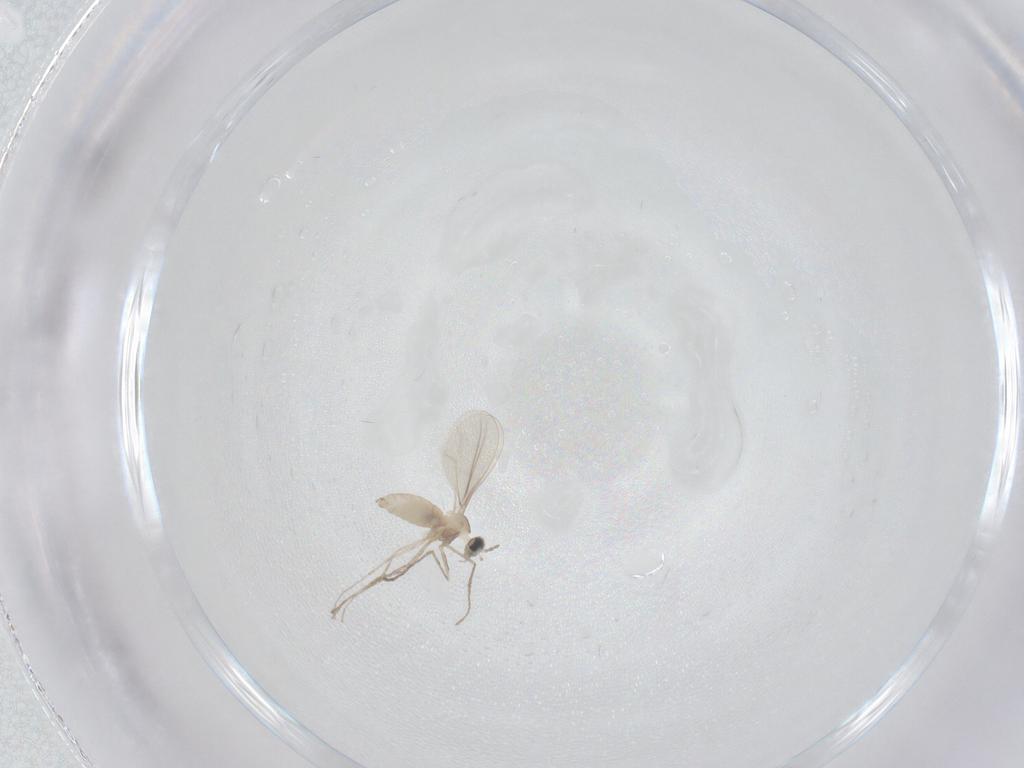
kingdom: Animalia
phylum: Arthropoda
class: Insecta
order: Diptera
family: Cecidomyiidae
